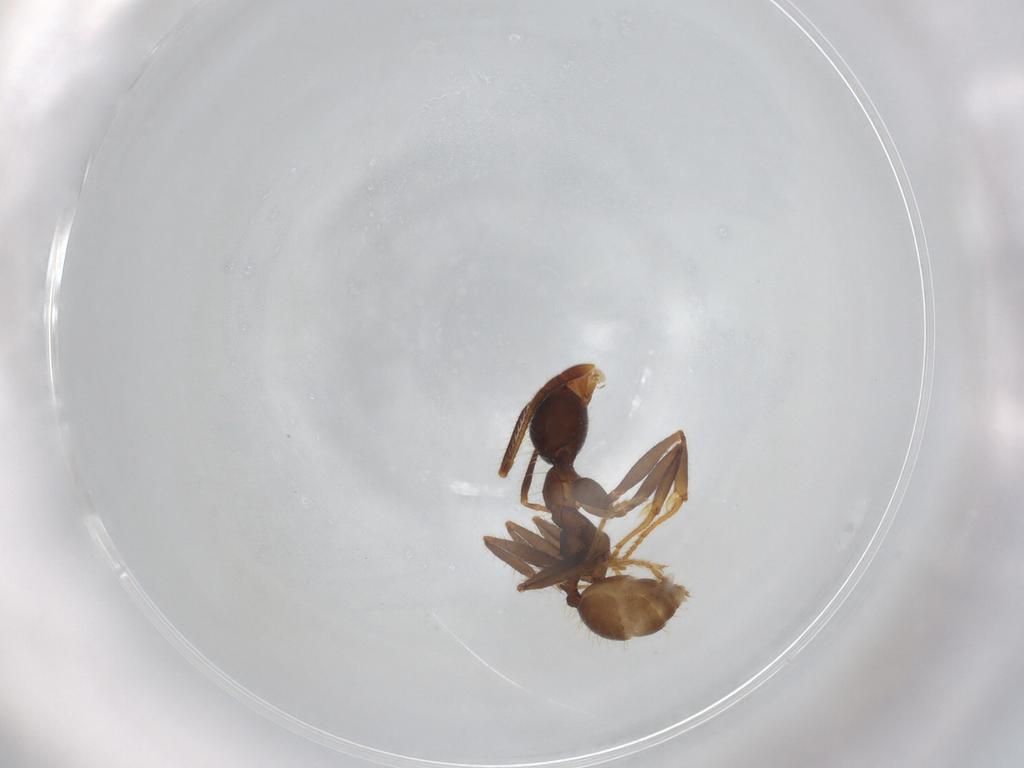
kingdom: Animalia
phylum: Arthropoda
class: Insecta
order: Hymenoptera
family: Formicidae
